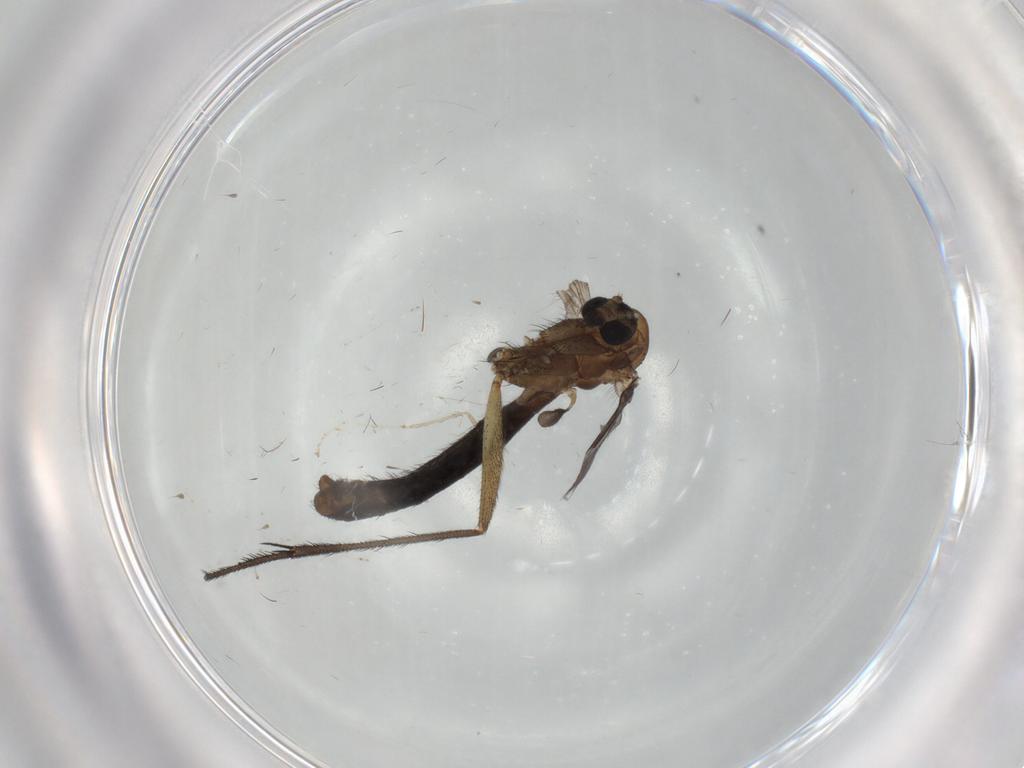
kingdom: Animalia
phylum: Arthropoda
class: Insecta
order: Diptera
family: Ditomyiidae
